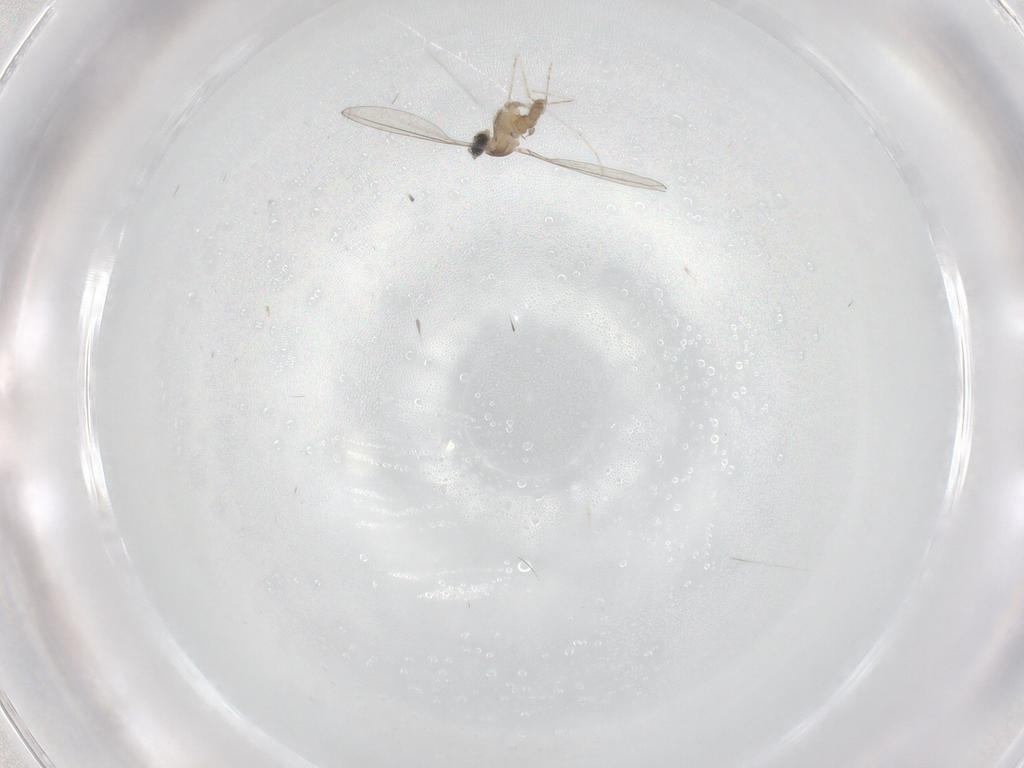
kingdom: Animalia
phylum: Arthropoda
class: Insecta
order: Diptera
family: Cecidomyiidae
